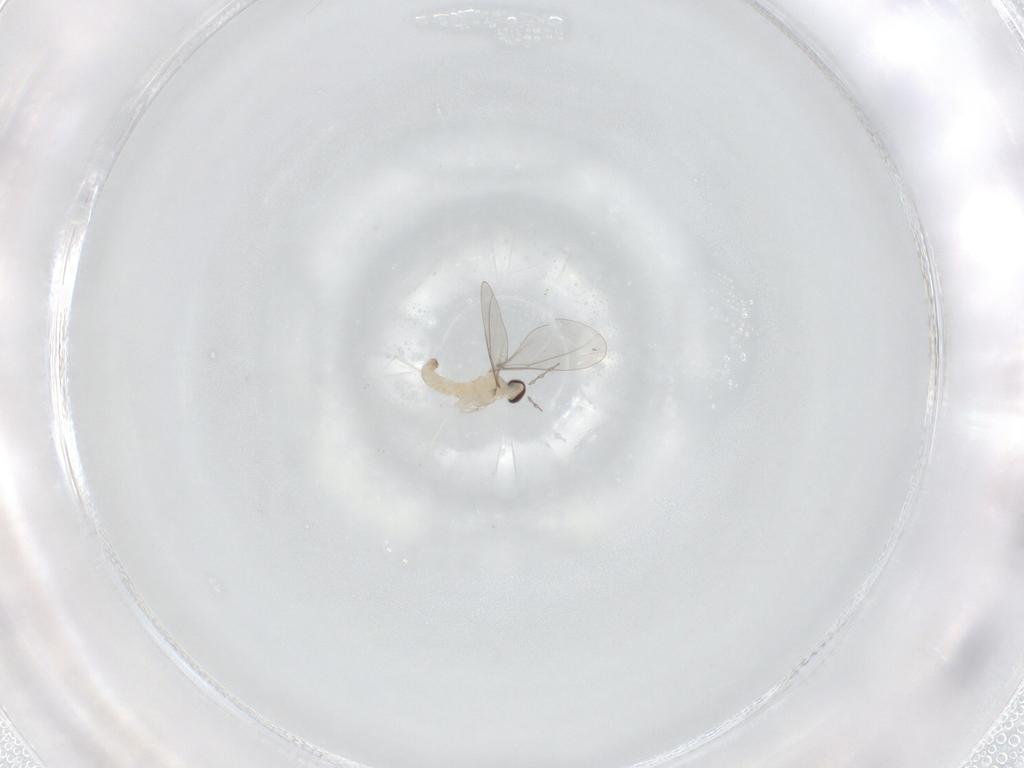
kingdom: Animalia
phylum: Arthropoda
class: Insecta
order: Diptera
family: Cecidomyiidae
